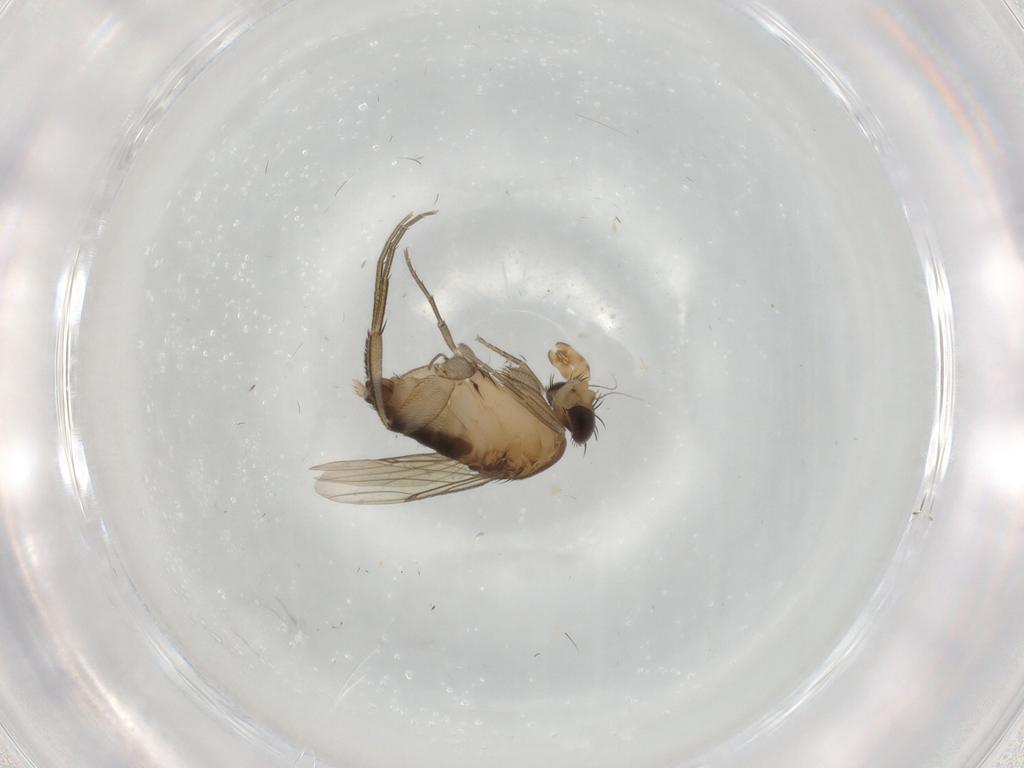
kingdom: Animalia
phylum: Arthropoda
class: Insecta
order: Diptera
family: Phoridae
